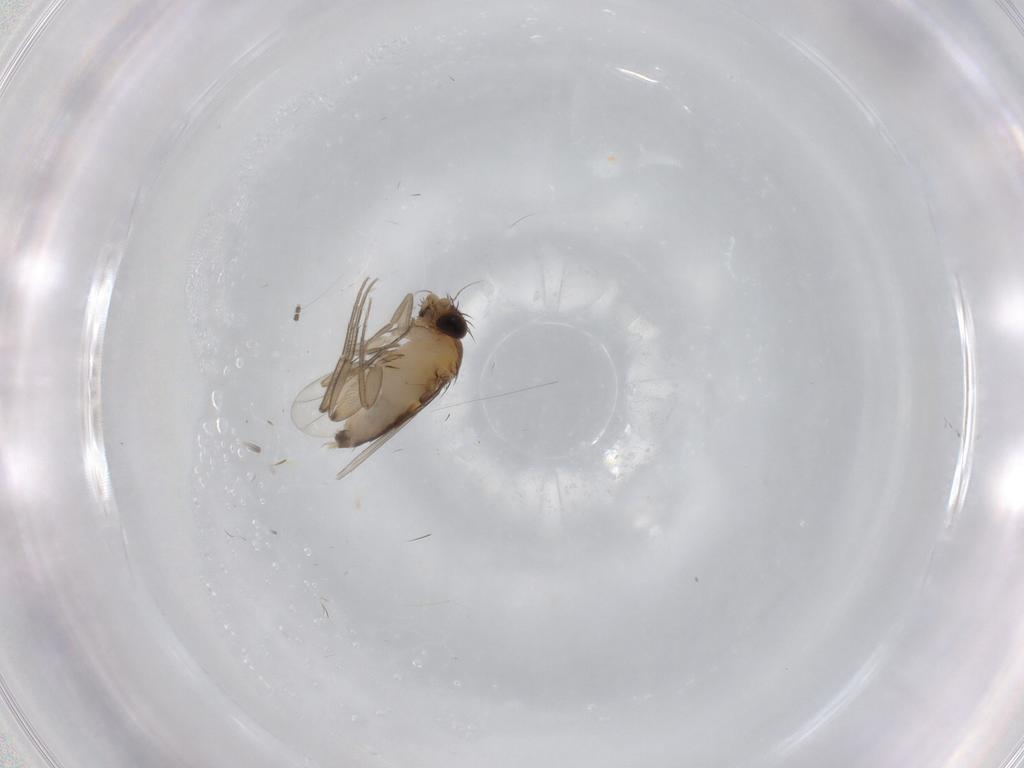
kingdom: Animalia
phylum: Arthropoda
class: Insecta
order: Diptera
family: Phoridae
